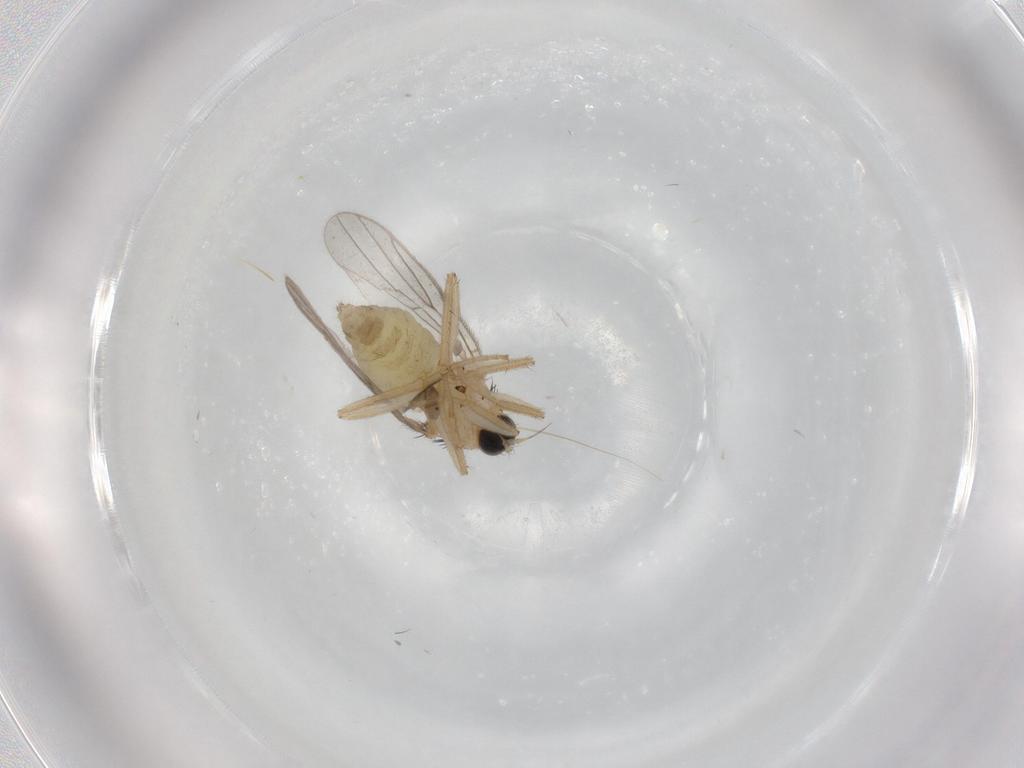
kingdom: Animalia
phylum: Arthropoda
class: Insecta
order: Diptera
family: Hybotidae
